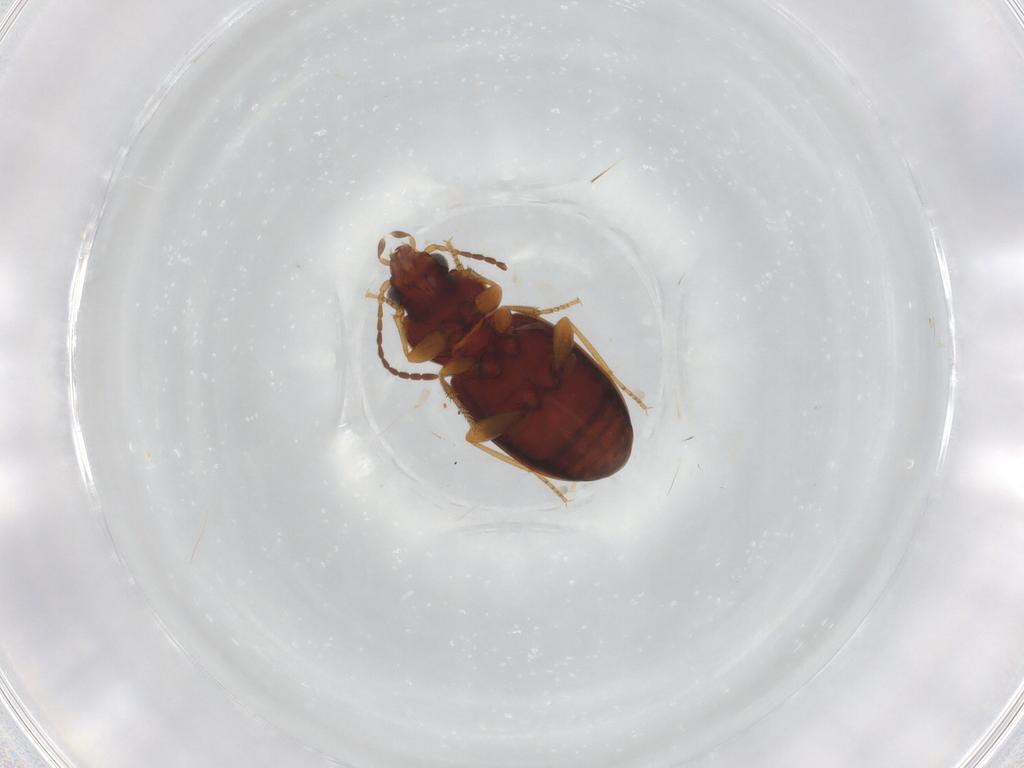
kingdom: Animalia
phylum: Arthropoda
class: Insecta
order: Coleoptera
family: Carabidae
